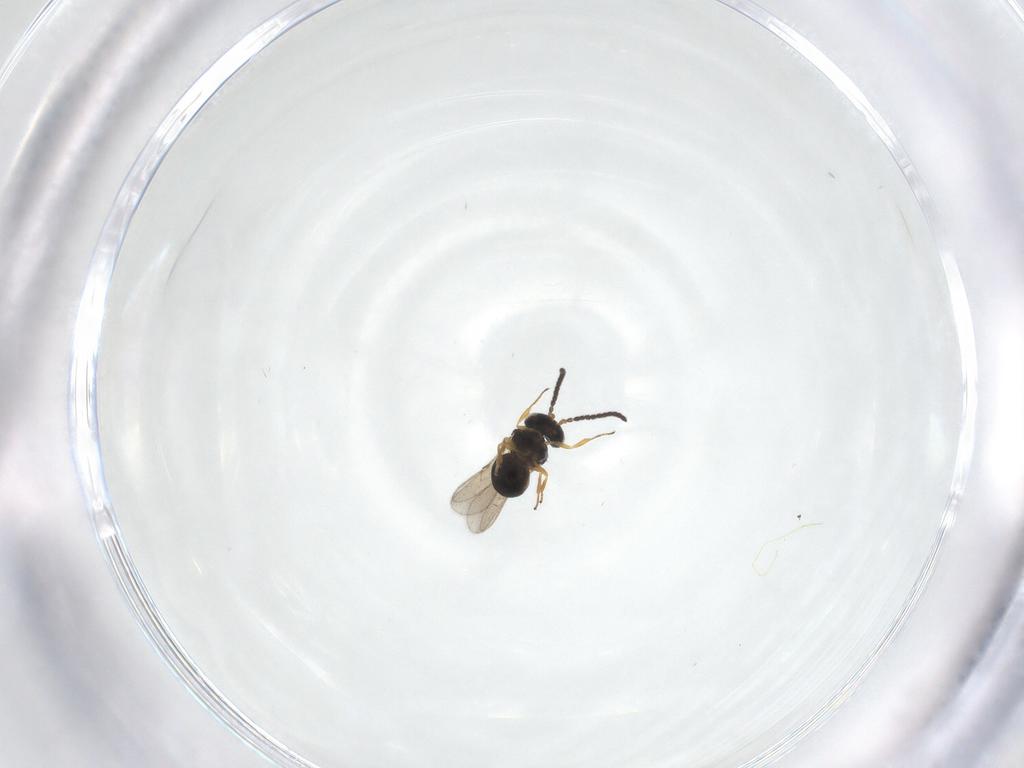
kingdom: Animalia
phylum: Arthropoda
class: Insecta
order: Hymenoptera
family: Scelionidae
